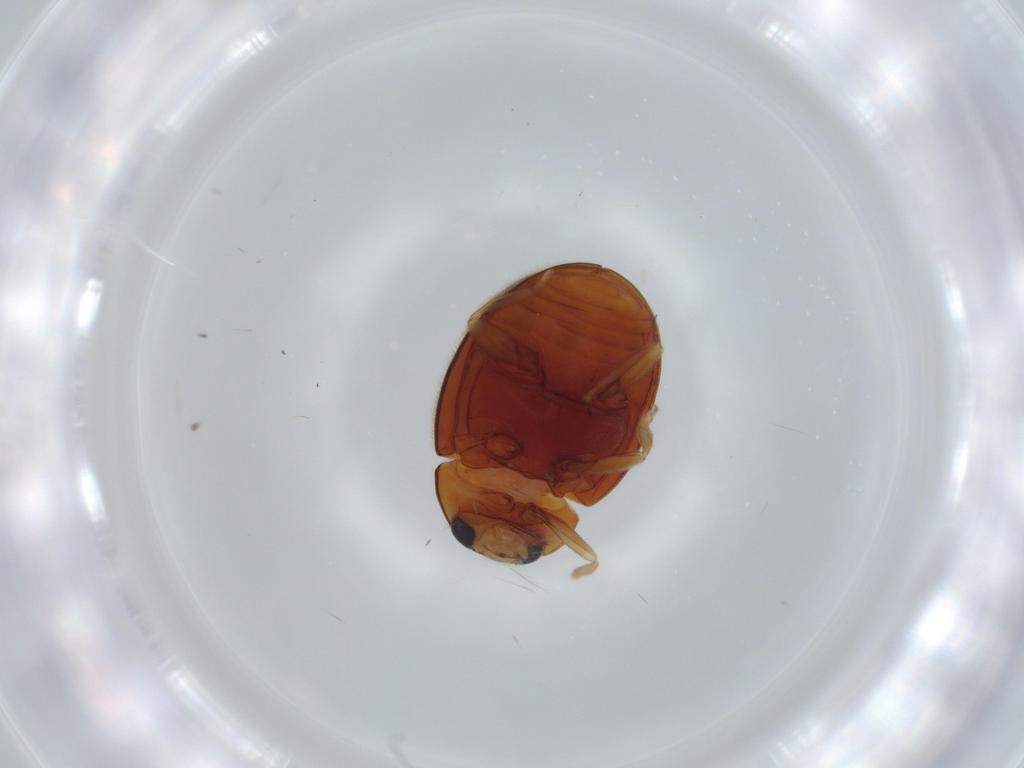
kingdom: Animalia
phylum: Arthropoda
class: Insecta
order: Coleoptera
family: Coccinellidae
